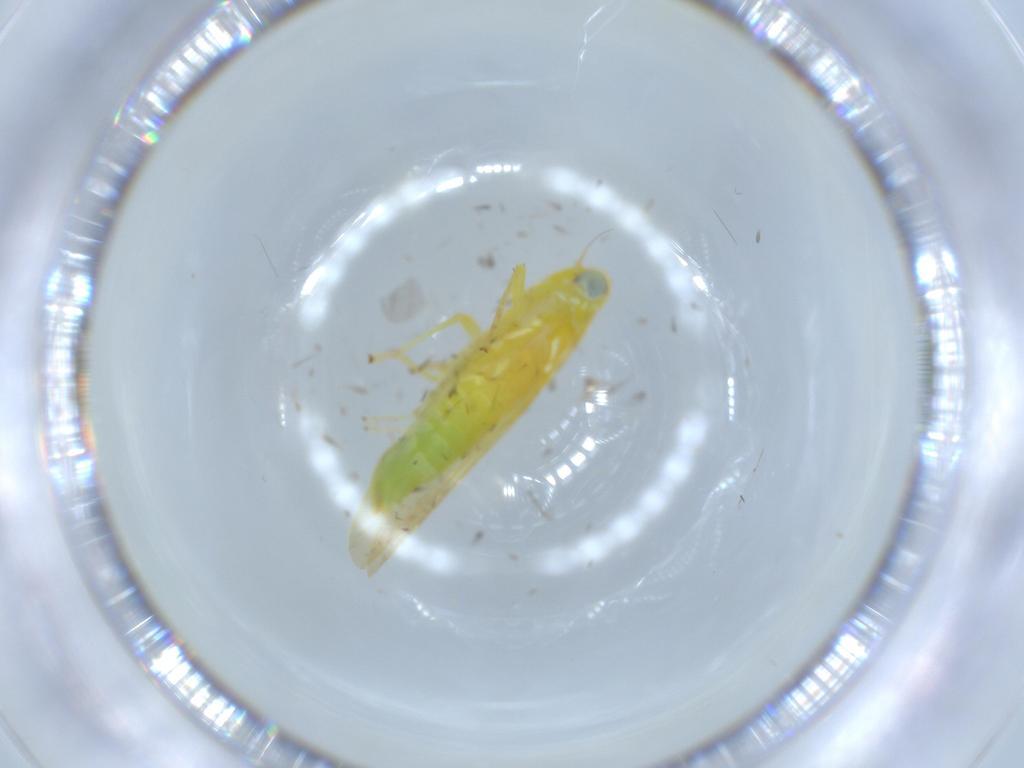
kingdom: Animalia
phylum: Arthropoda
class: Insecta
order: Hemiptera
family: Cicadellidae
